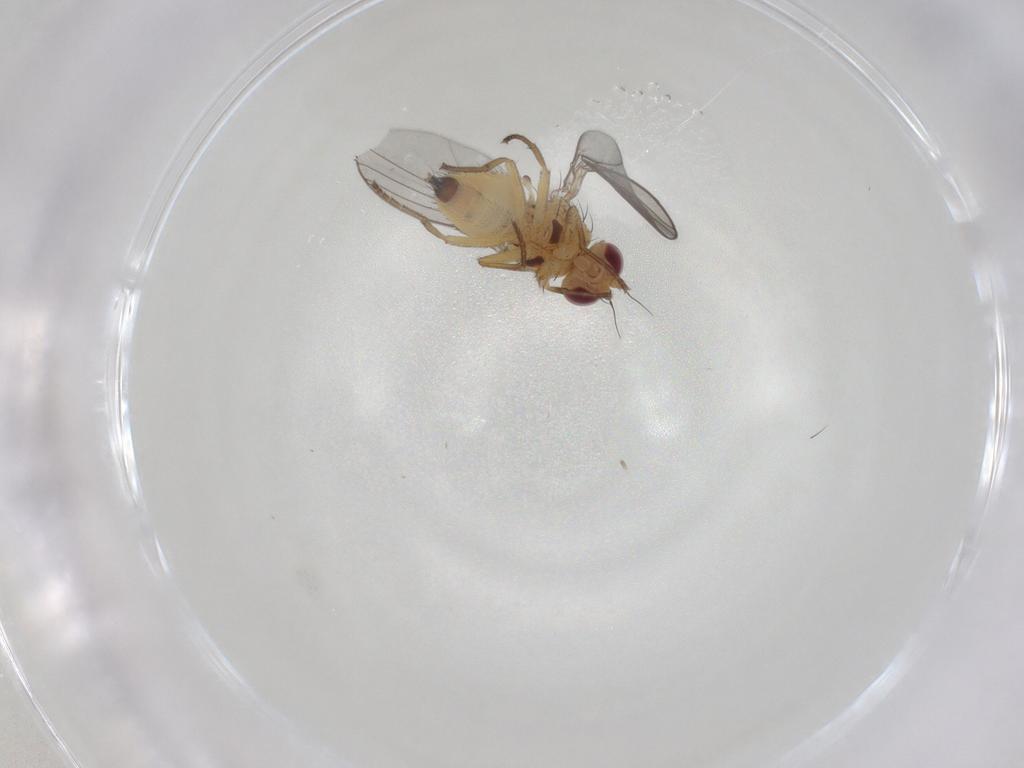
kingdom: Animalia
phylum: Arthropoda
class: Insecta
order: Diptera
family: Agromyzidae
